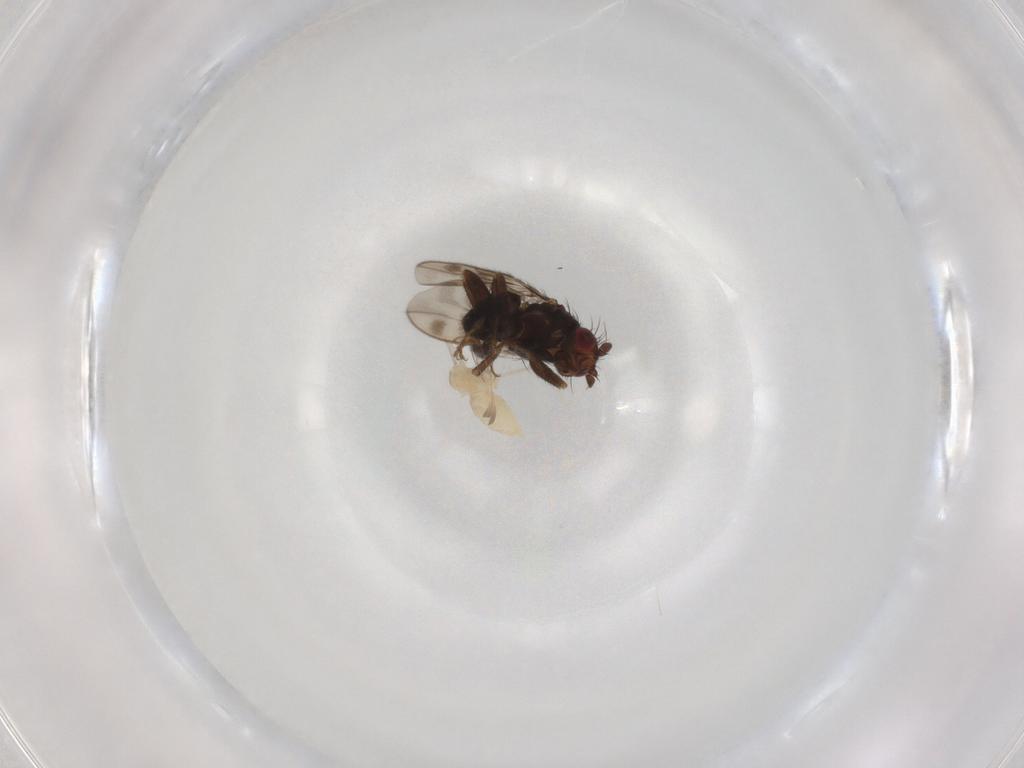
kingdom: Animalia
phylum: Arthropoda
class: Insecta
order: Diptera
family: Sphaeroceridae
